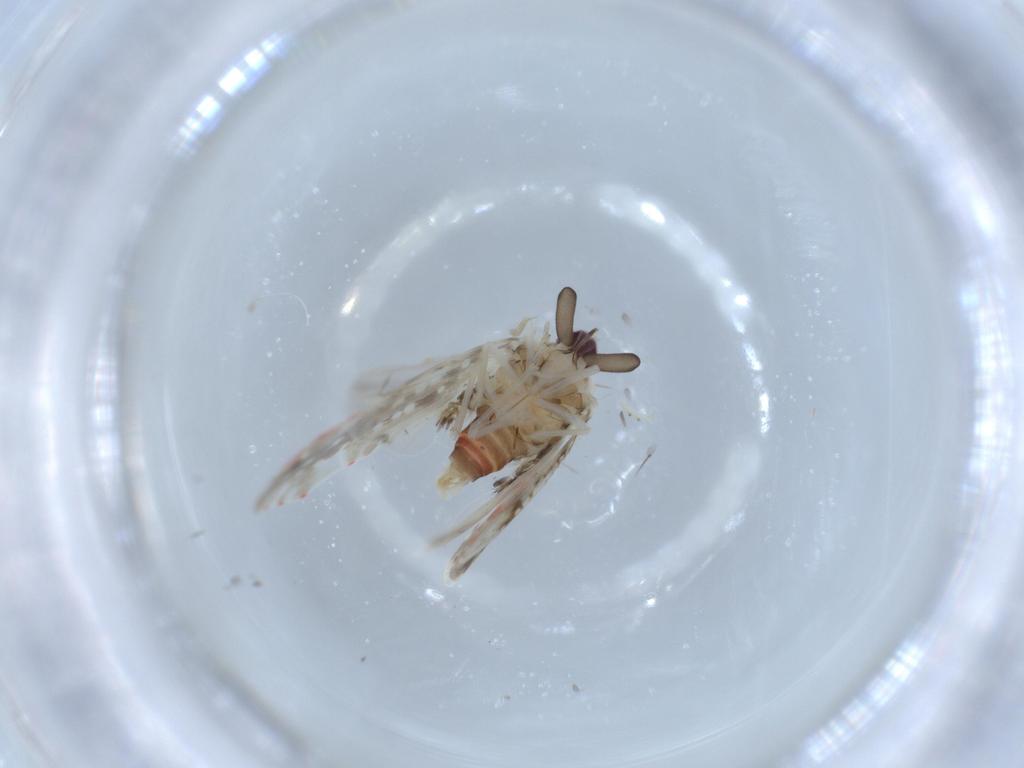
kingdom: Animalia
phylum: Arthropoda
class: Insecta
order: Hemiptera
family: Derbidae
